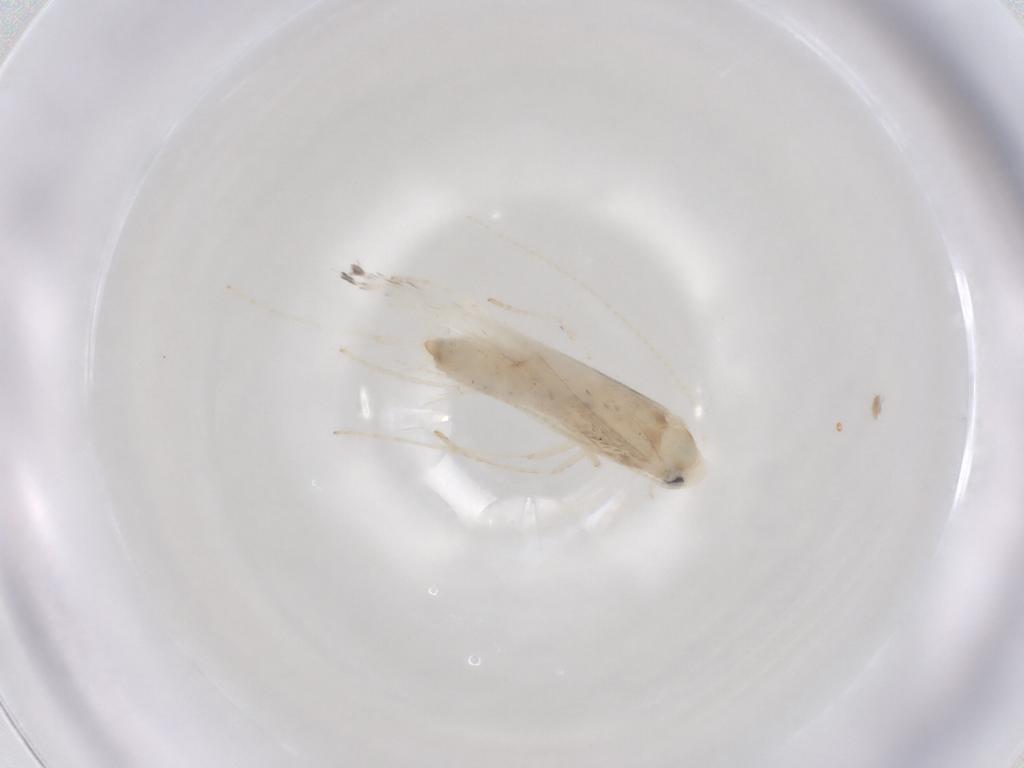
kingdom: Animalia
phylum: Arthropoda
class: Insecta
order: Lepidoptera
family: Gracillariidae
